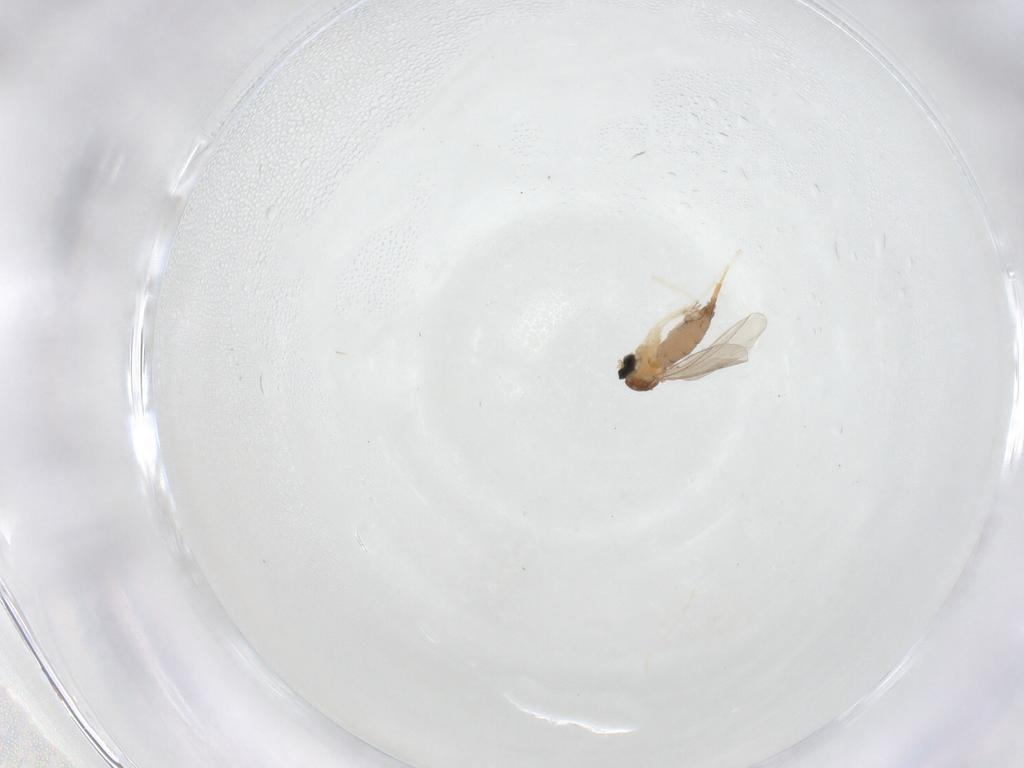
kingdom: Animalia
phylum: Arthropoda
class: Insecta
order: Diptera
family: Cecidomyiidae
